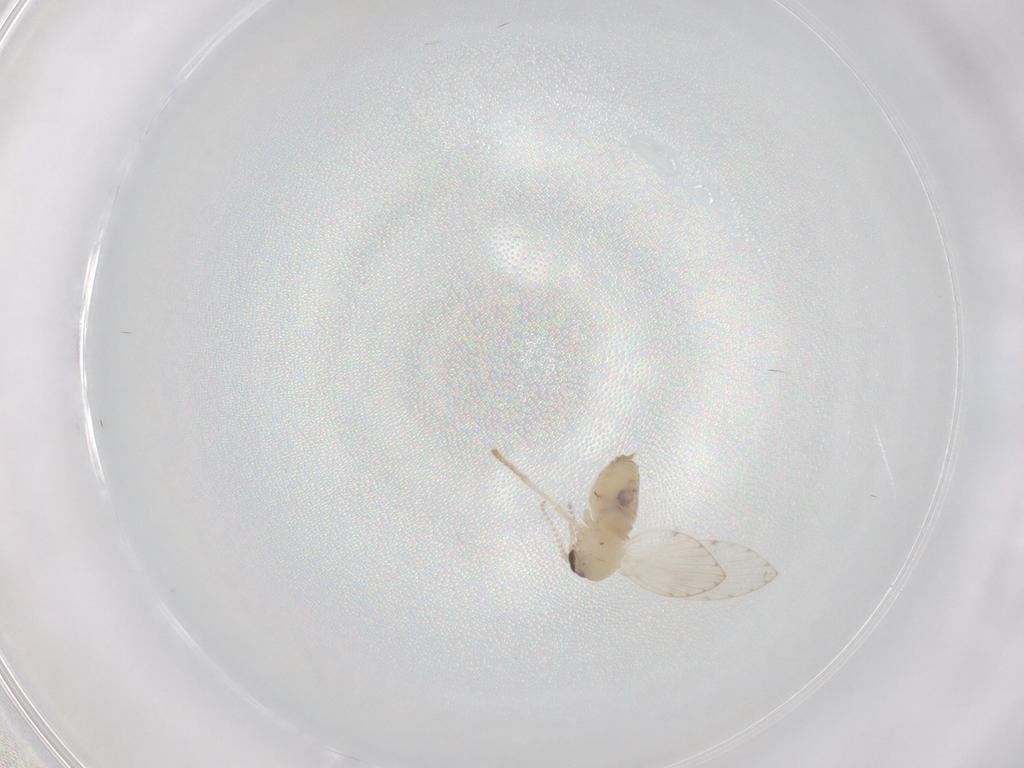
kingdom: Animalia
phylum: Arthropoda
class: Insecta
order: Diptera
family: Psychodidae
